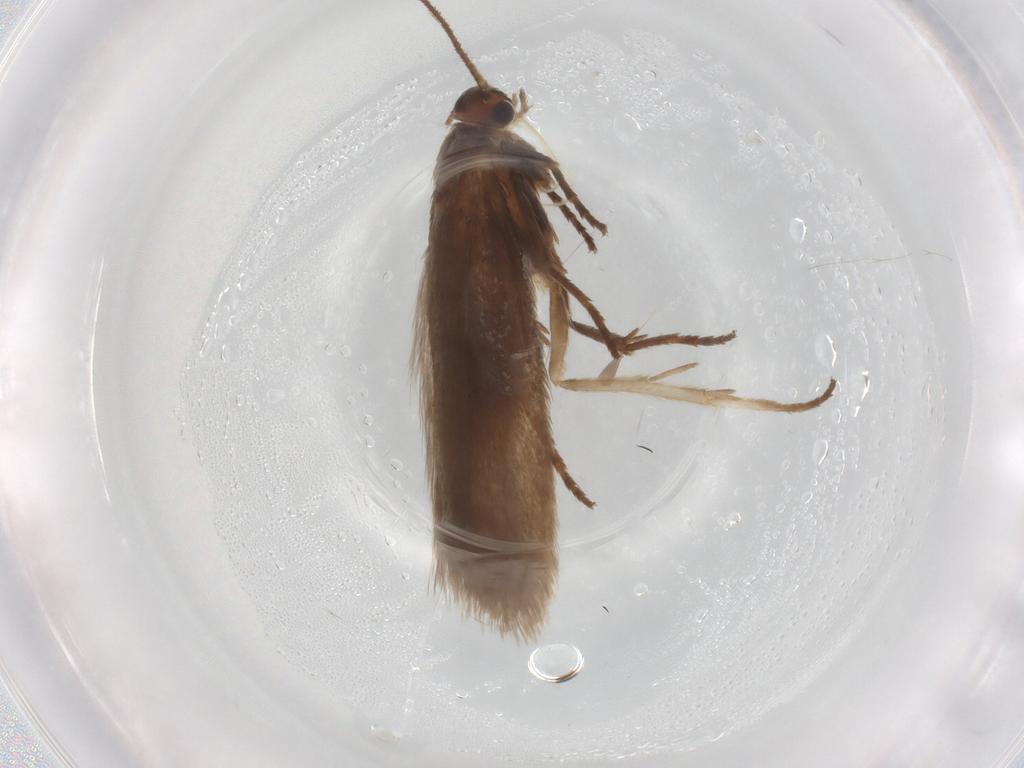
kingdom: Animalia
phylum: Arthropoda
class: Insecta
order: Lepidoptera
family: Limacodidae
